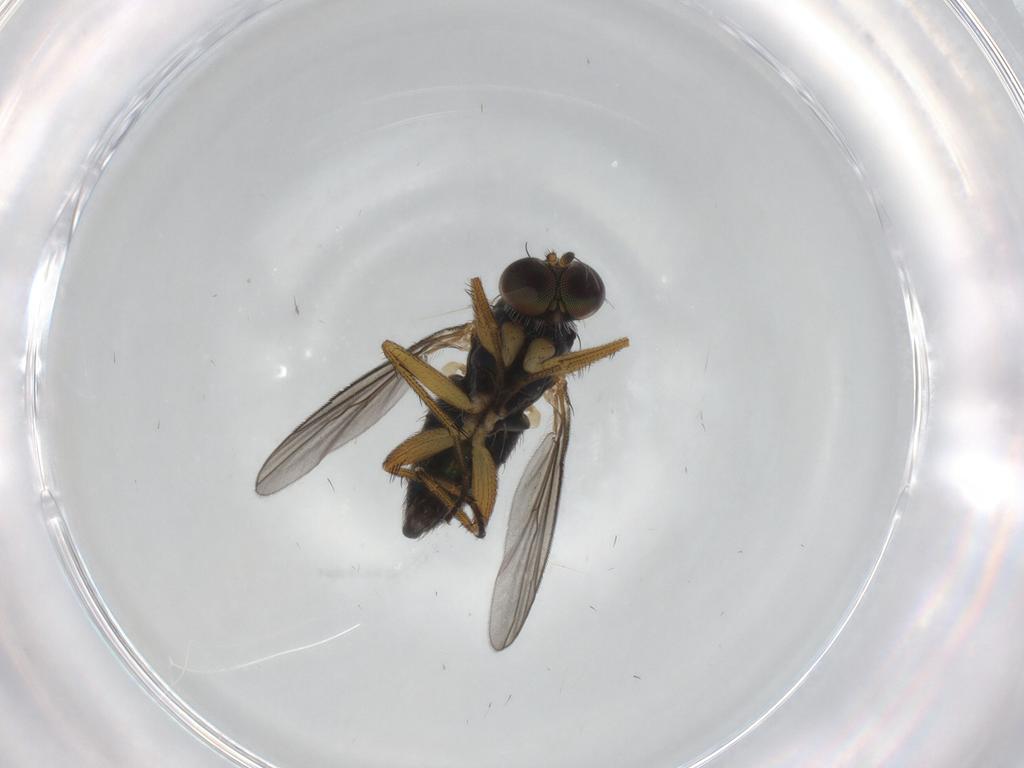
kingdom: Animalia
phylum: Arthropoda
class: Insecta
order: Diptera
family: Dolichopodidae
